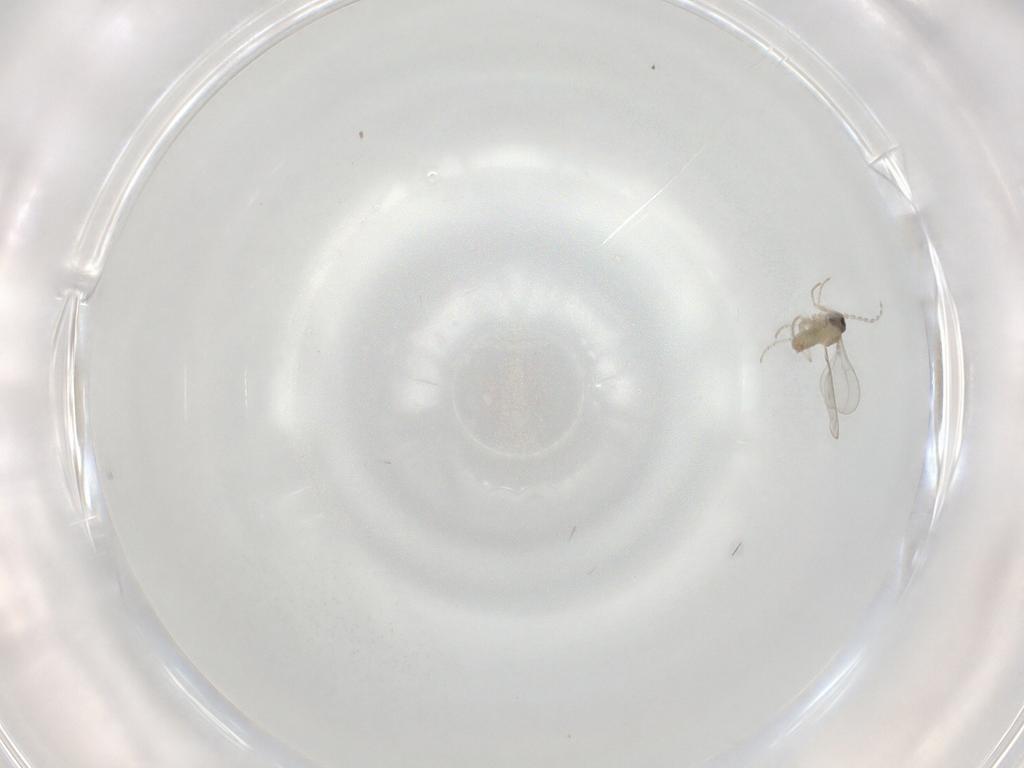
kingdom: Animalia
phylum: Arthropoda
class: Insecta
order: Diptera
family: Cecidomyiidae
